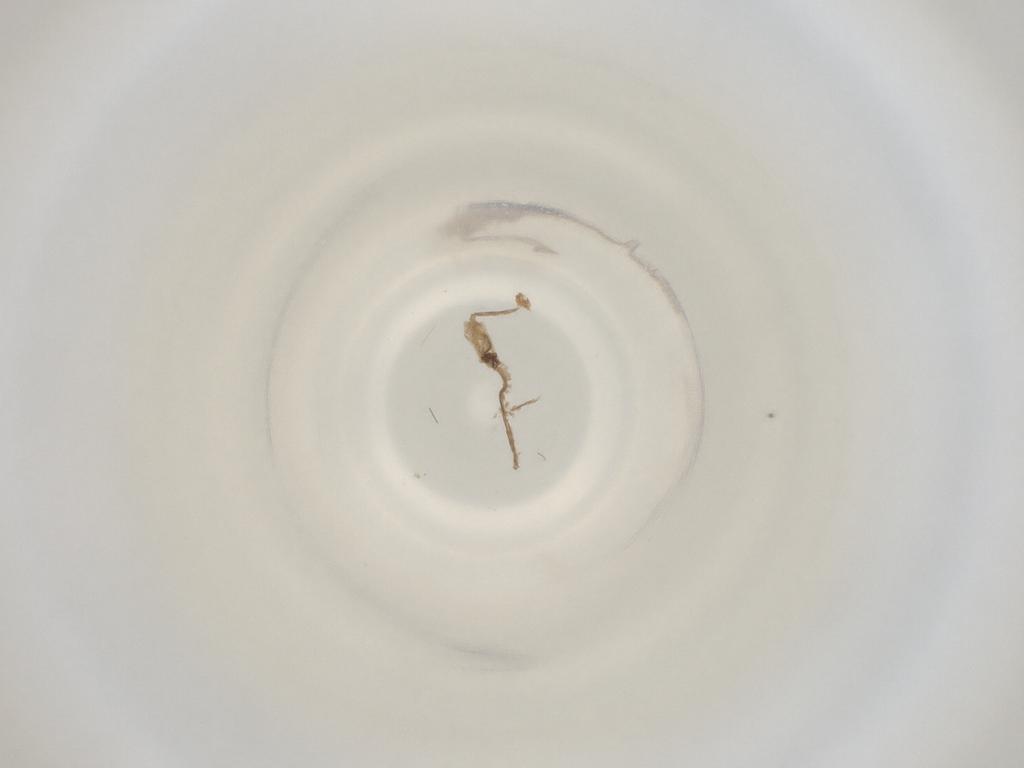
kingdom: Animalia
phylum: Arthropoda
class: Insecta
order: Diptera
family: Cecidomyiidae
